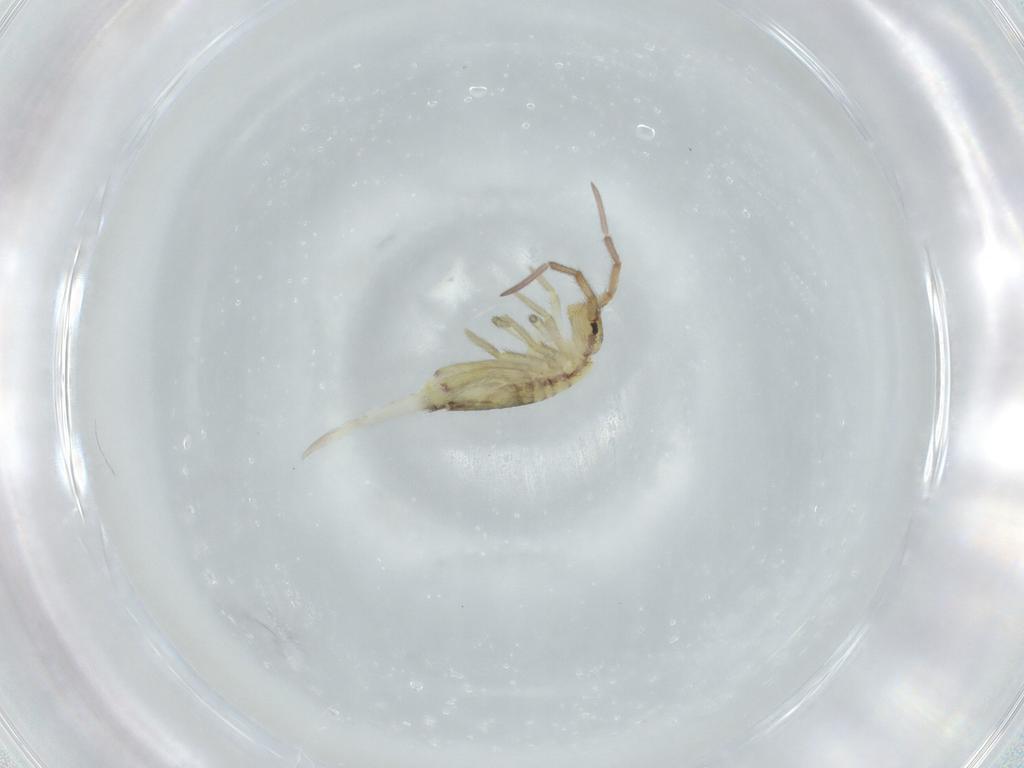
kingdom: Animalia
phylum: Arthropoda
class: Collembola
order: Entomobryomorpha
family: Entomobryidae
